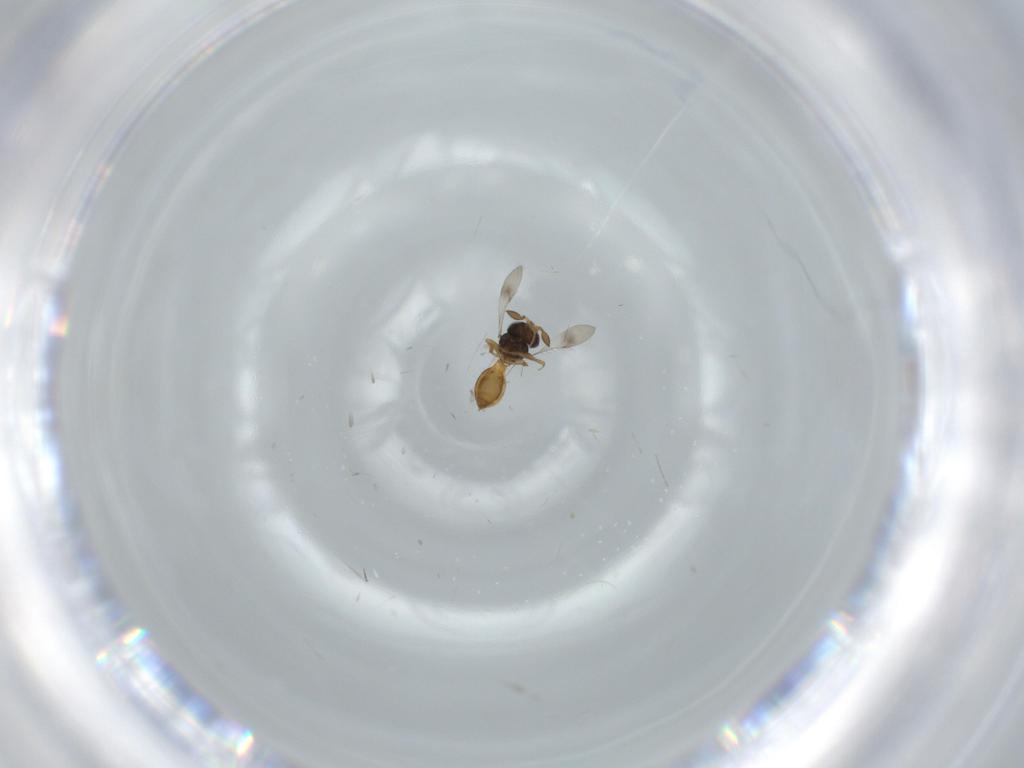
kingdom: Animalia
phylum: Arthropoda
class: Insecta
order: Hymenoptera
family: Scelionidae
